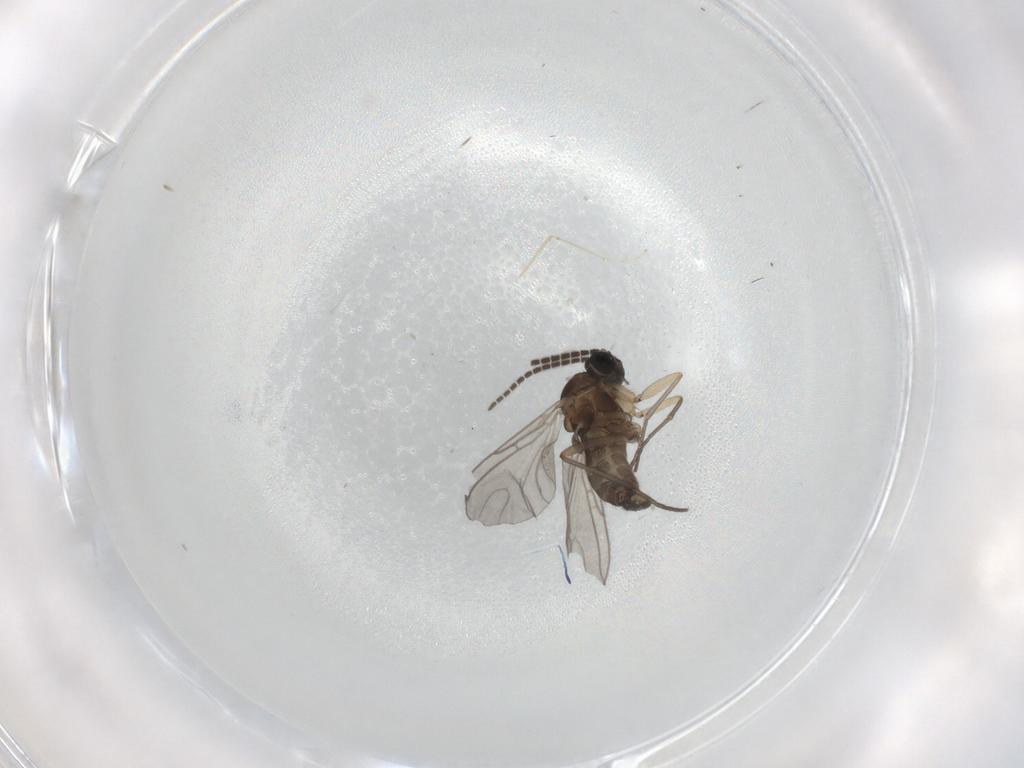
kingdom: Animalia
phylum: Arthropoda
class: Insecta
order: Diptera
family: Sciaridae
